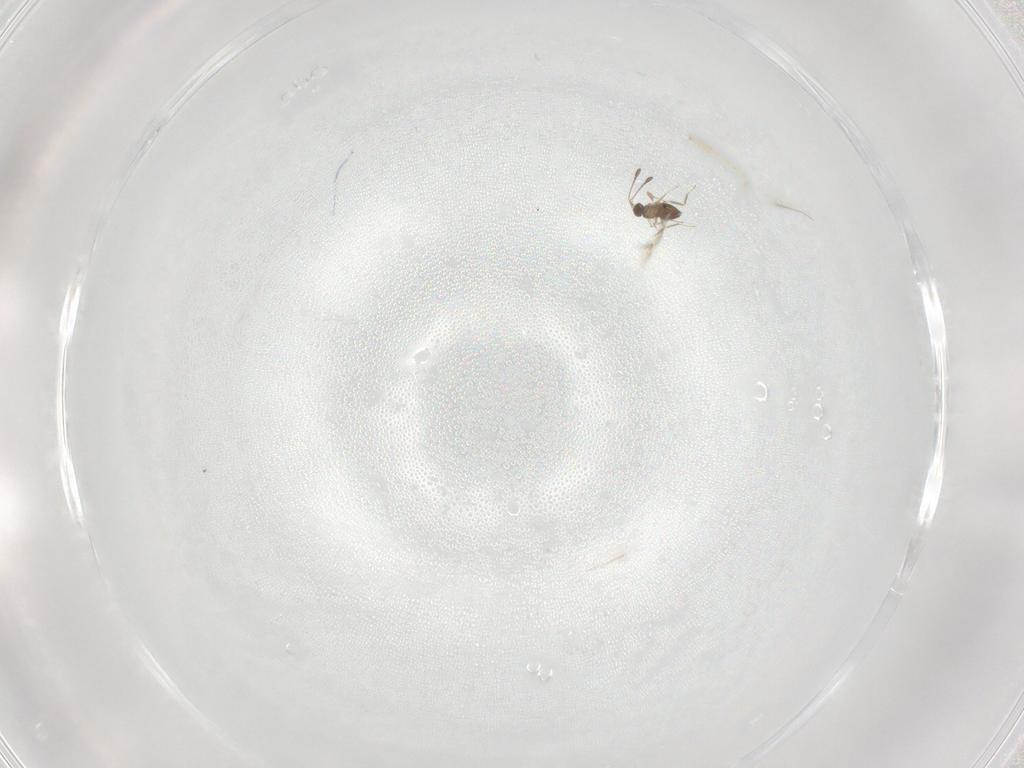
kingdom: Animalia
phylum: Arthropoda
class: Insecta
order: Hymenoptera
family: Mymaridae
